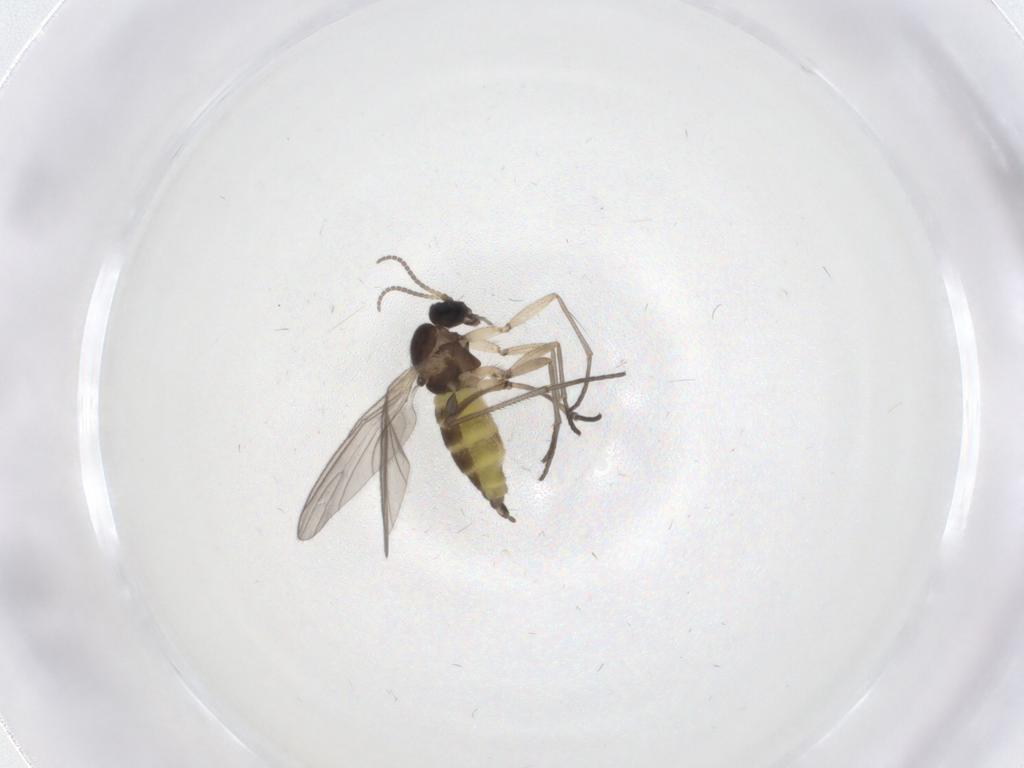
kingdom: Animalia
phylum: Arthropoda
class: Insecta
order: Diptera
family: Sciaridae
